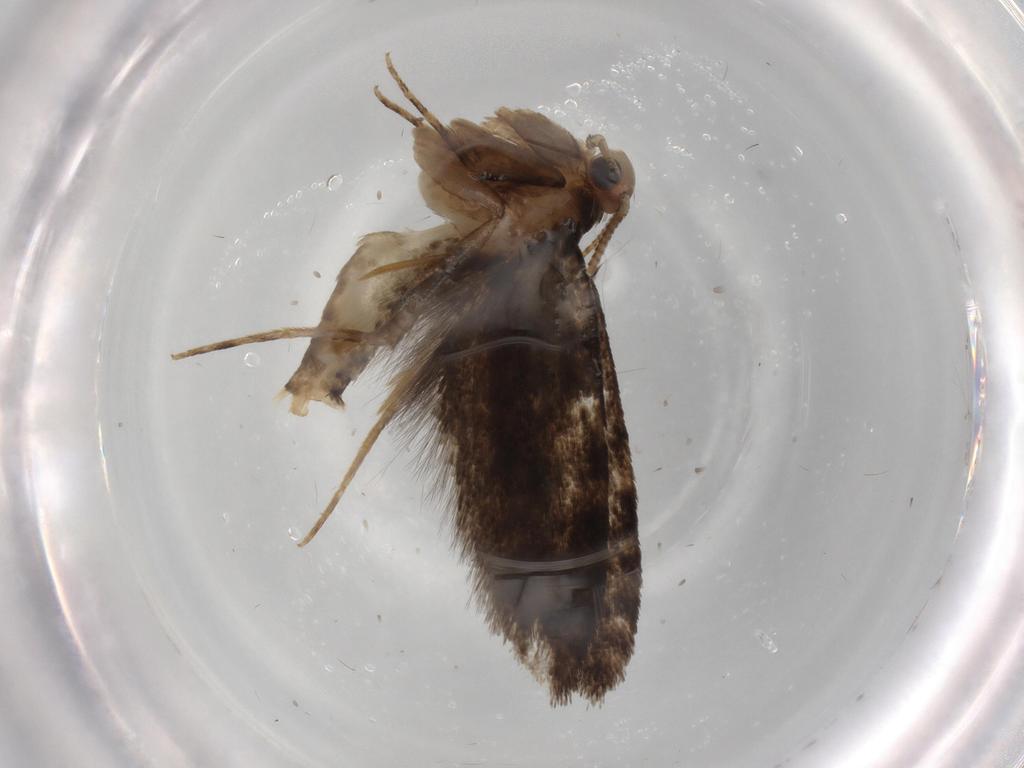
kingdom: Animalia
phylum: Arthropoda
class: Insecta
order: Lepidoptera
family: Tineidae
